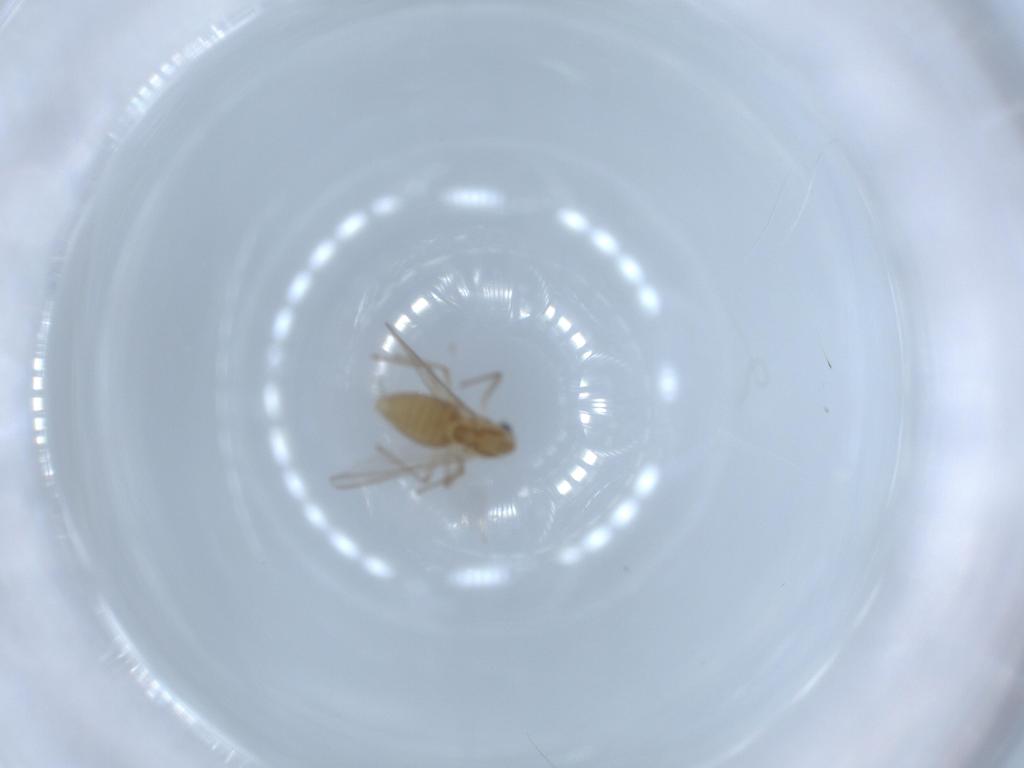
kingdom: Animalia
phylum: Arthropoda
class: Insecta
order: Diptera
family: Chironomidae
